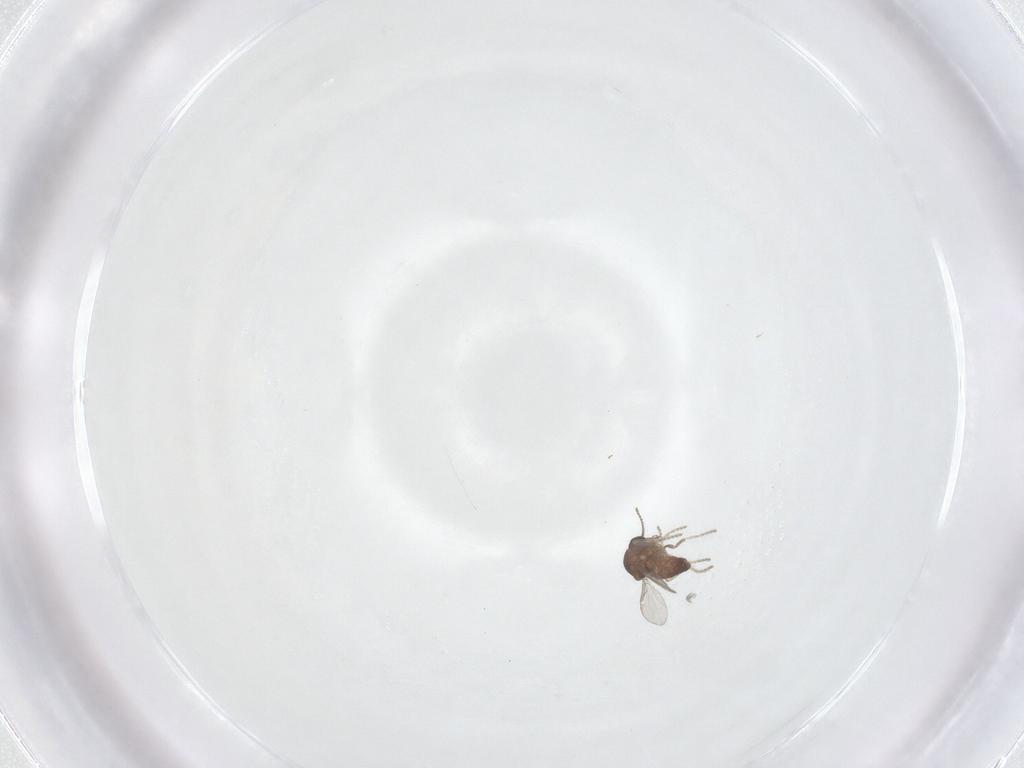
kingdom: Animalia
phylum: Arthropoda
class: Insecta
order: Diptera
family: Ceratopogonidae
